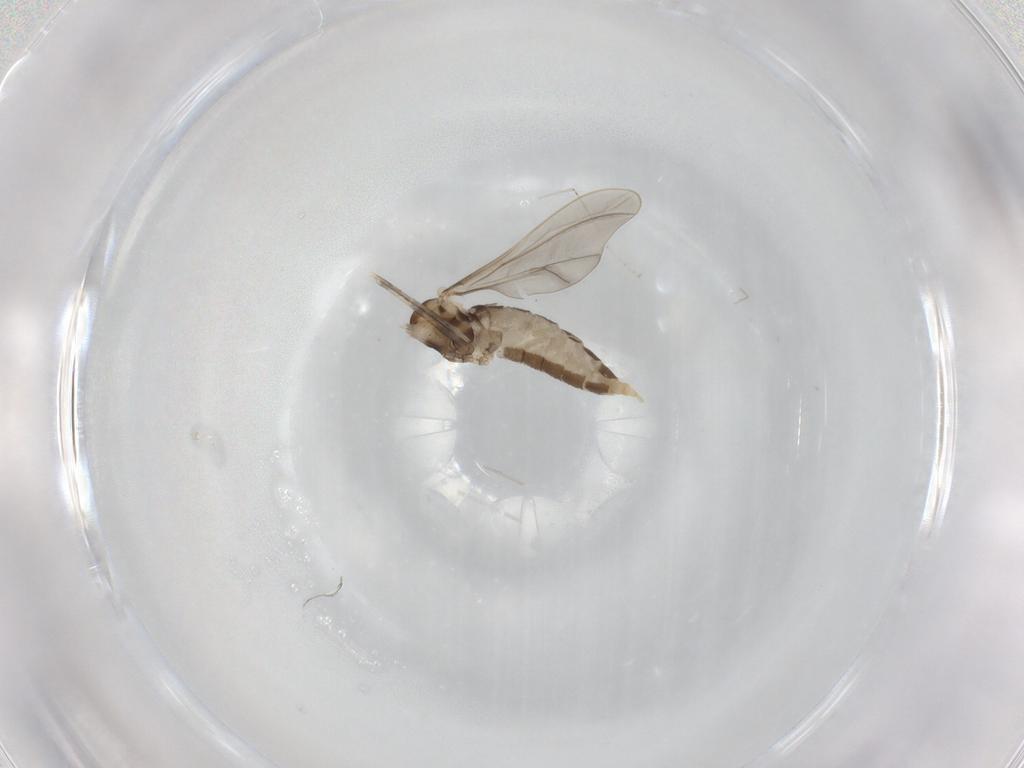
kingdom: Animalia
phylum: Arthropoda
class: Insecta
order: Diptera
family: Cecidomyiidae
